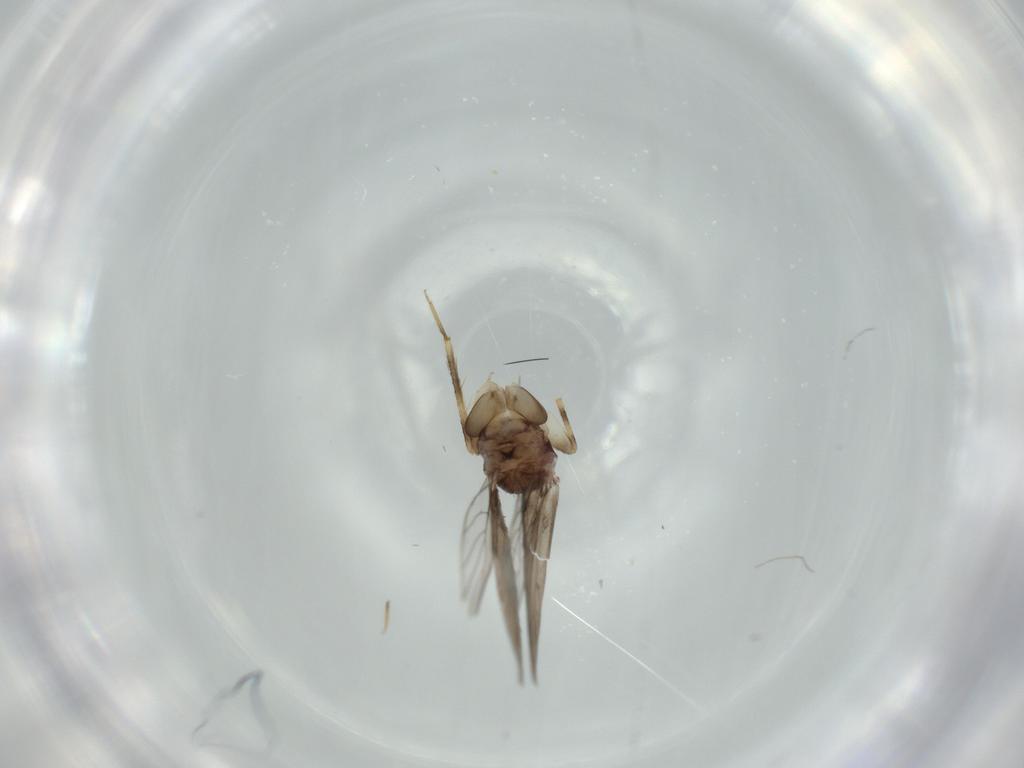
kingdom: Animalia
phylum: Arthropoda
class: Insecta
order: Psocodea
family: Lepidopsocidae
